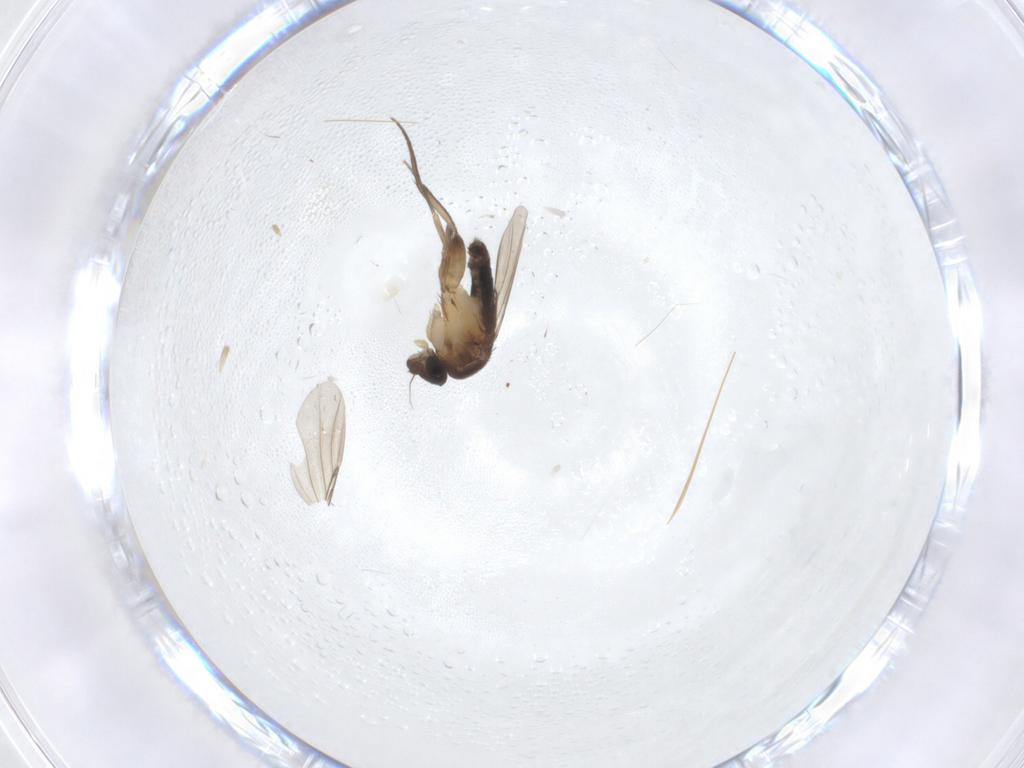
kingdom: Animalia
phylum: Arthropoda
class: Insecta
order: Diptera
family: Phoridae
